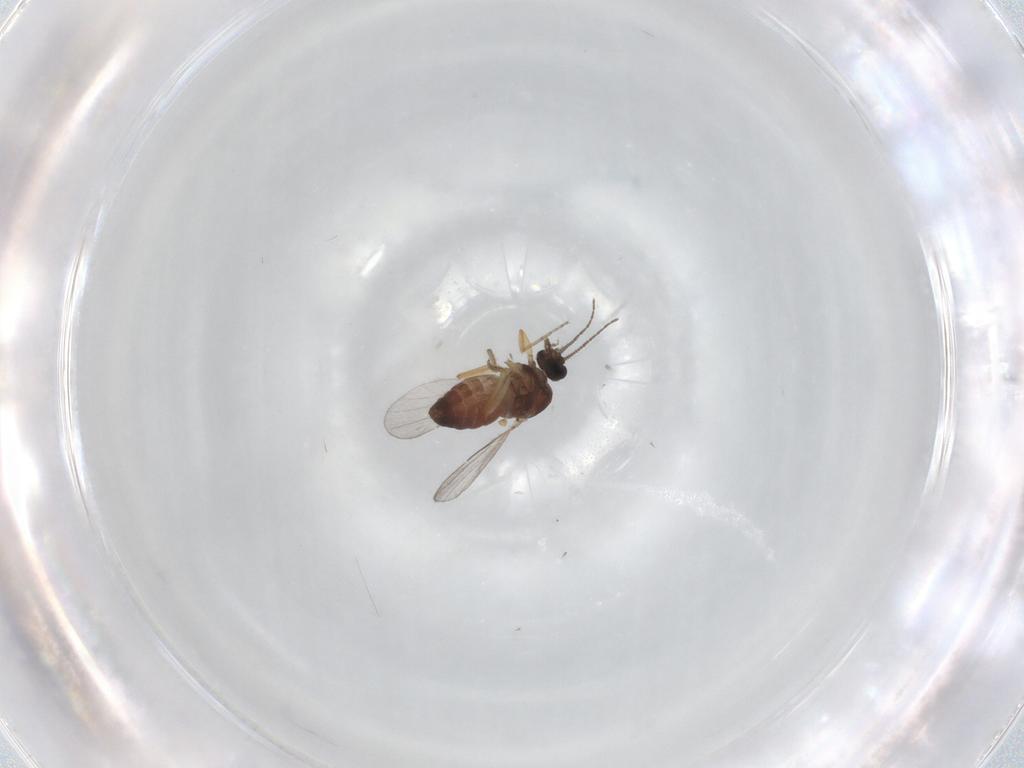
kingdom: Animalia
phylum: Arthropoda
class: Insecta
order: Diptera
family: Ceratopogonidae
